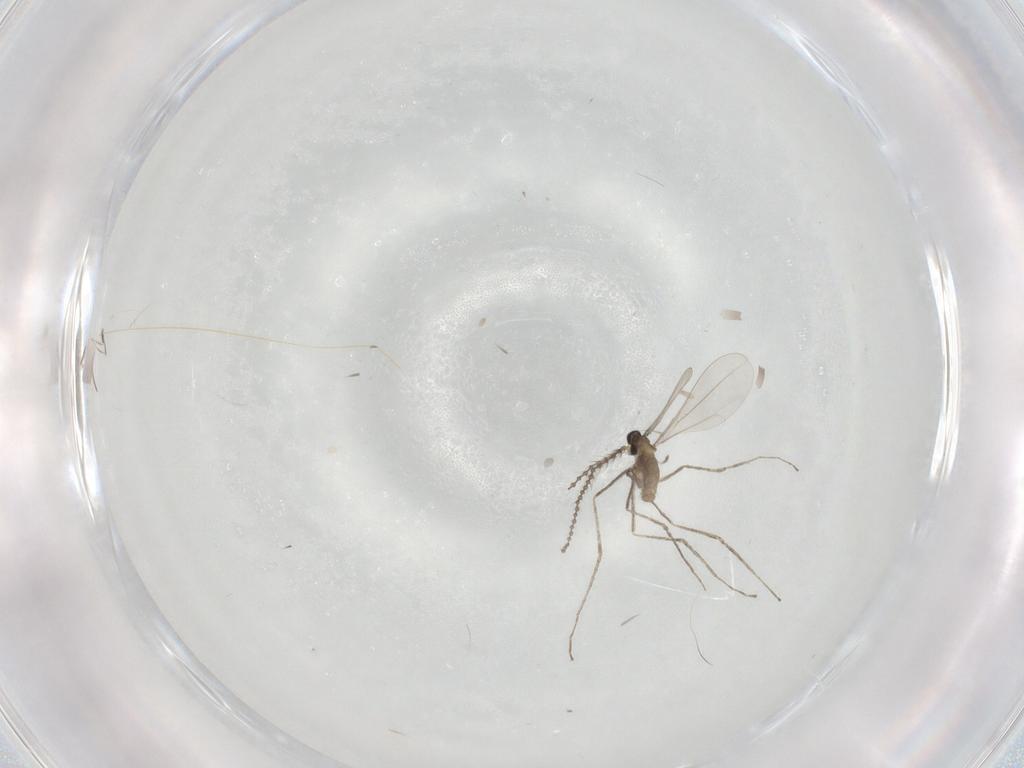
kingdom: Animalia
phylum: Arthropoda
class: Insecta
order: Diptera
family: Cecidomyiidae
